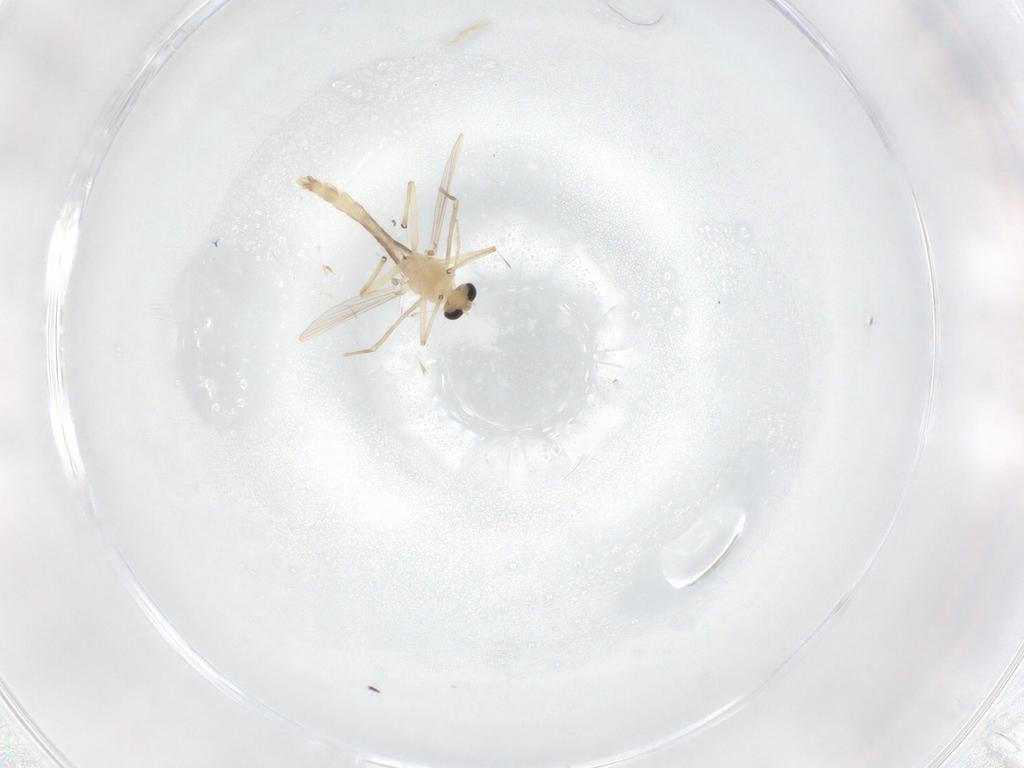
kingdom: Animalia
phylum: Arthropoda
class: Insecta
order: Diptera
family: Chironomidae
